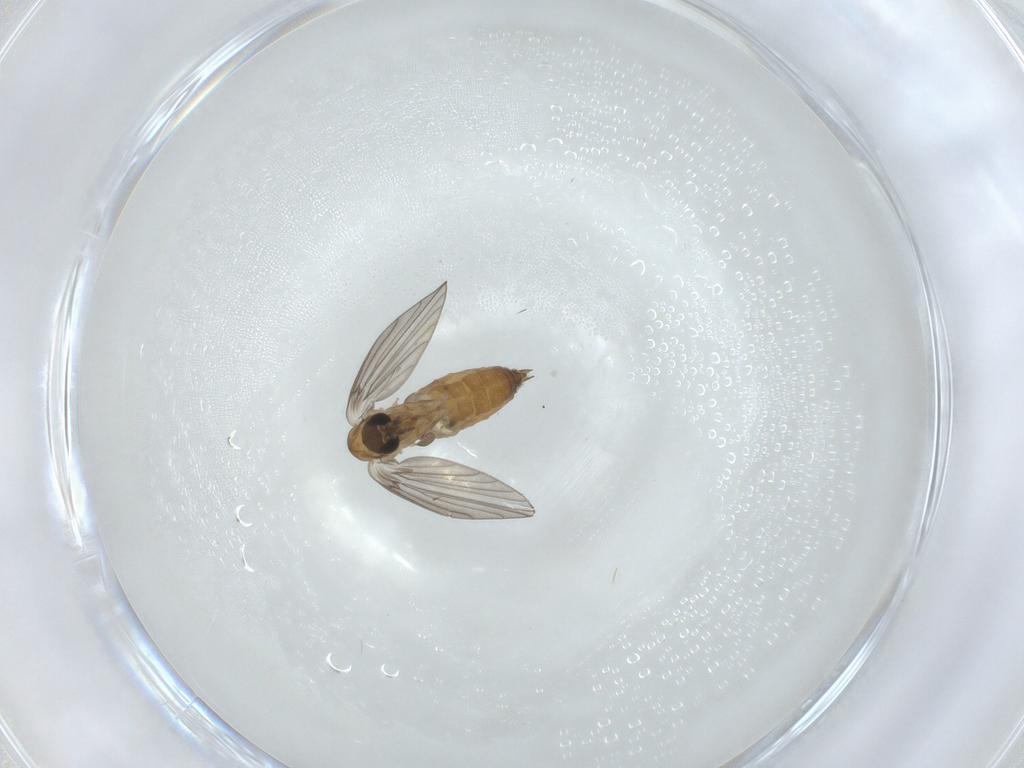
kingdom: Animalia
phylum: Arthropoda
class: Insecta
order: Diptera
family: Sciaridae
